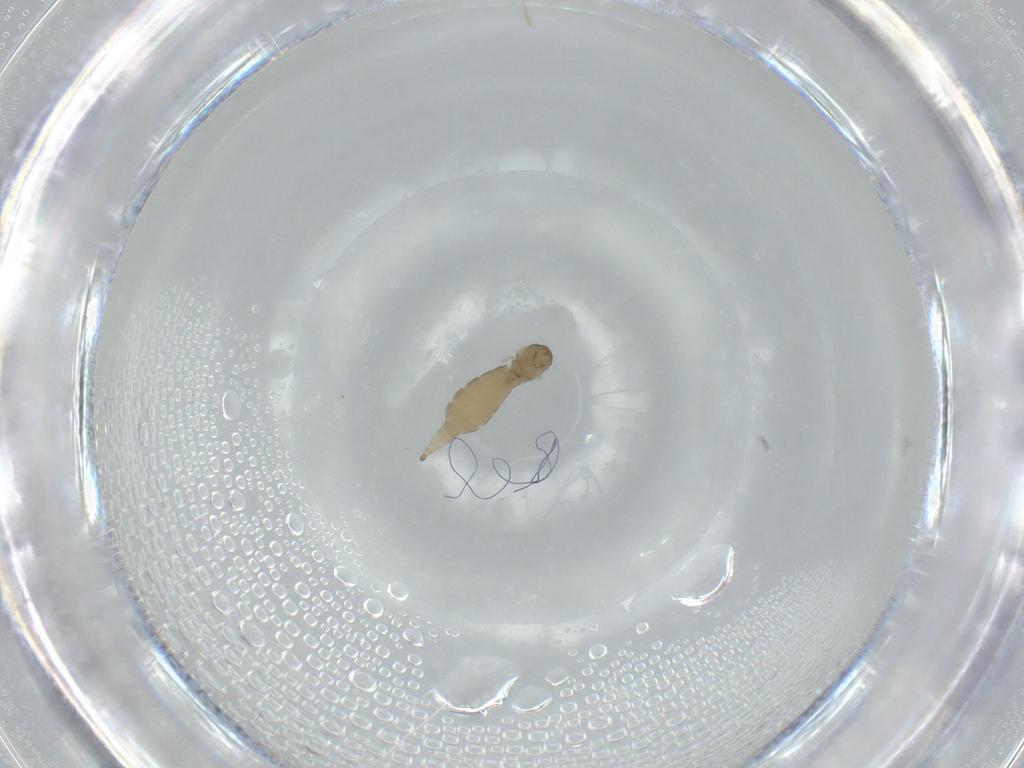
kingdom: Animalia
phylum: Arthropoda
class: Insecta
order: Diptera
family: Cecidomyiidae
